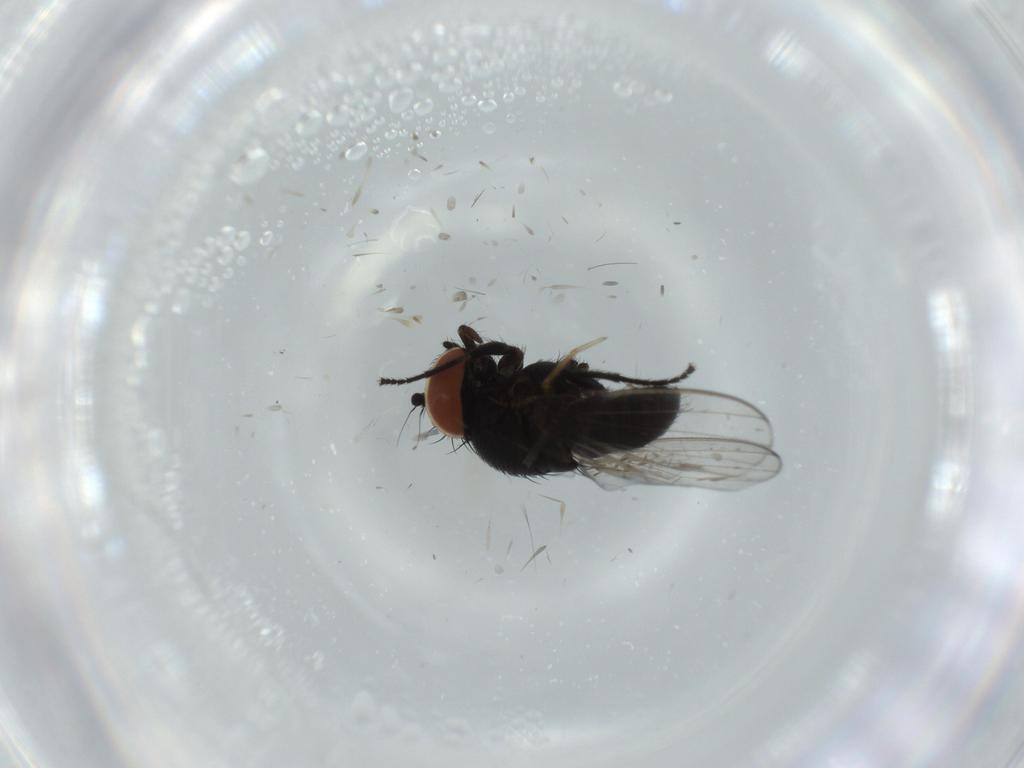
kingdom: Animalia
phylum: Arthropoda
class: Insecta
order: Diptera
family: Milichiidae
